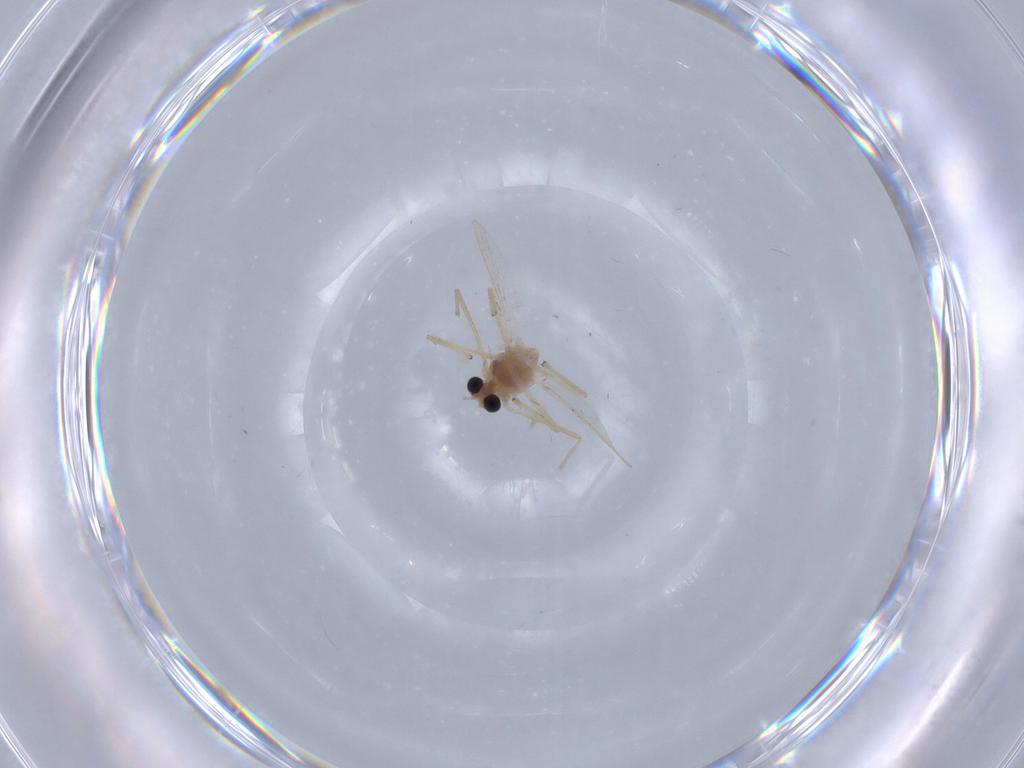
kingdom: Animalia
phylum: Arthropoda
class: Insecta
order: Diptera
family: Chironomidae
